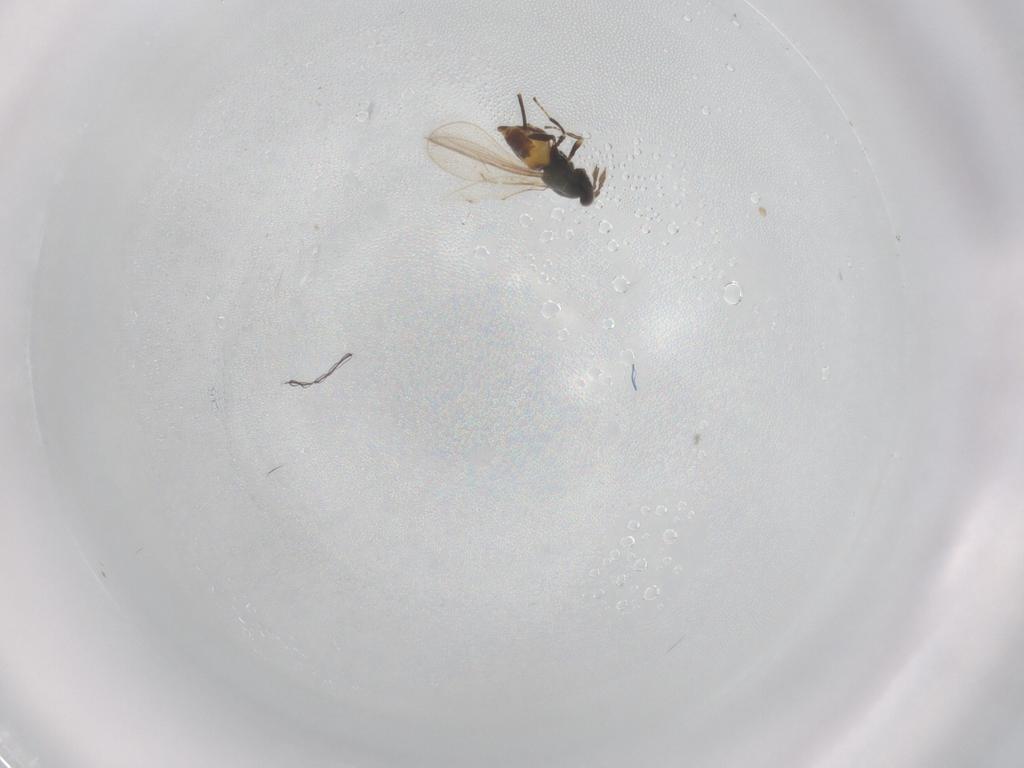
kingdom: Animalia
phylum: Arthropoda
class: Insecta
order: Hymenoptera
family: Eurytomidae
